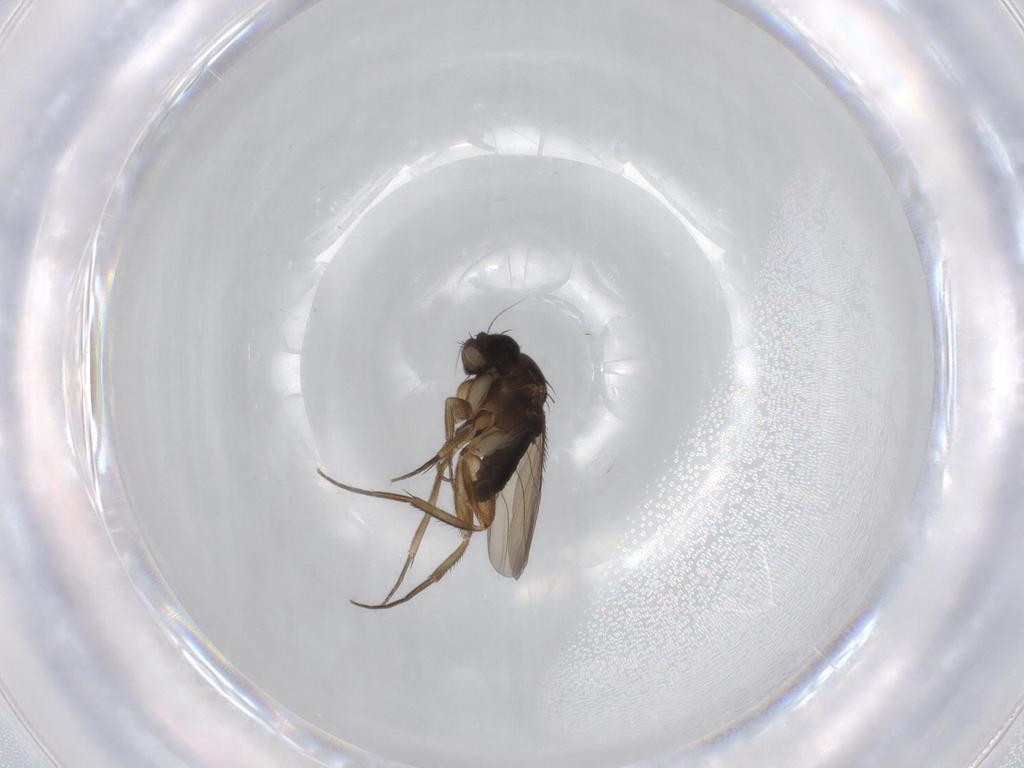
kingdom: Animalia
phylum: Arthropoda
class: Insecta
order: Diptera
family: Phoridae
